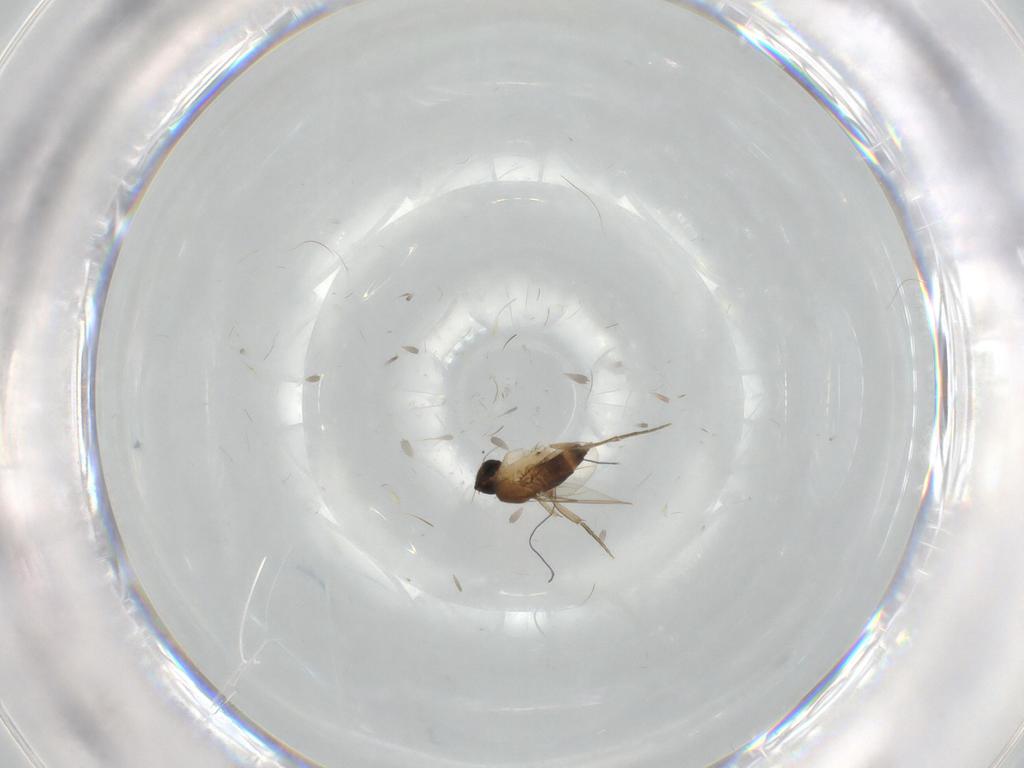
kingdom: Animalia
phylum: Arthropoda
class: Insecta
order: Diptera
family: Phoridae
